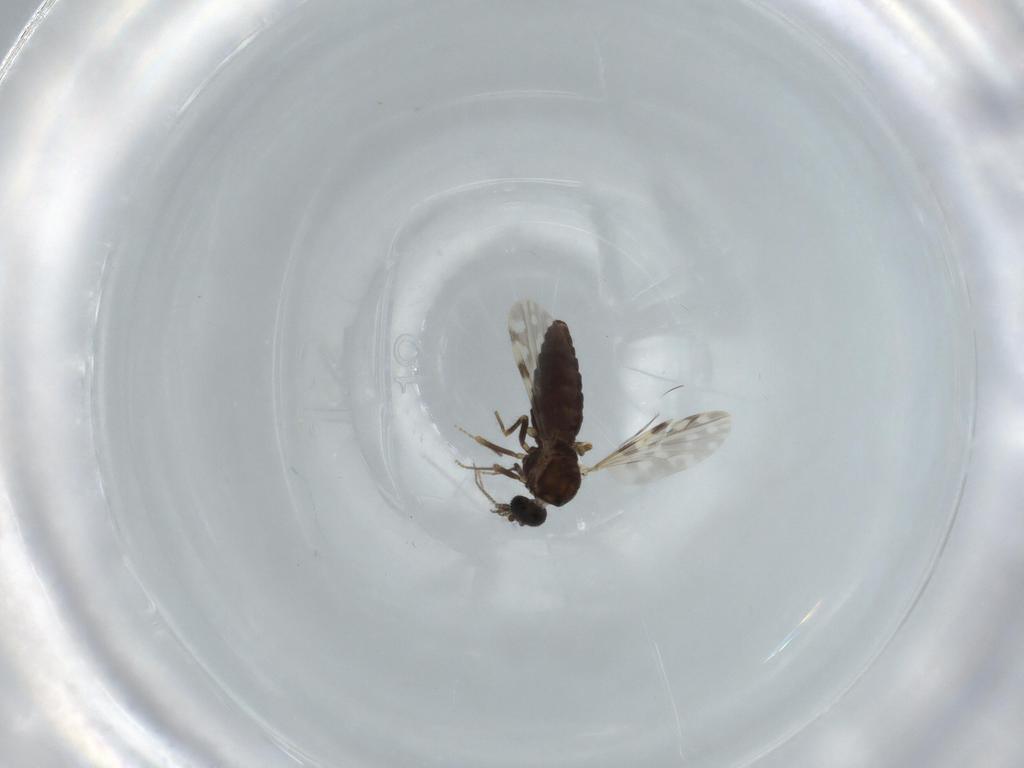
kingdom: Animalia
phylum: Arthropoda
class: Insecta
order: Diptera
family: Ceratopogonidae
